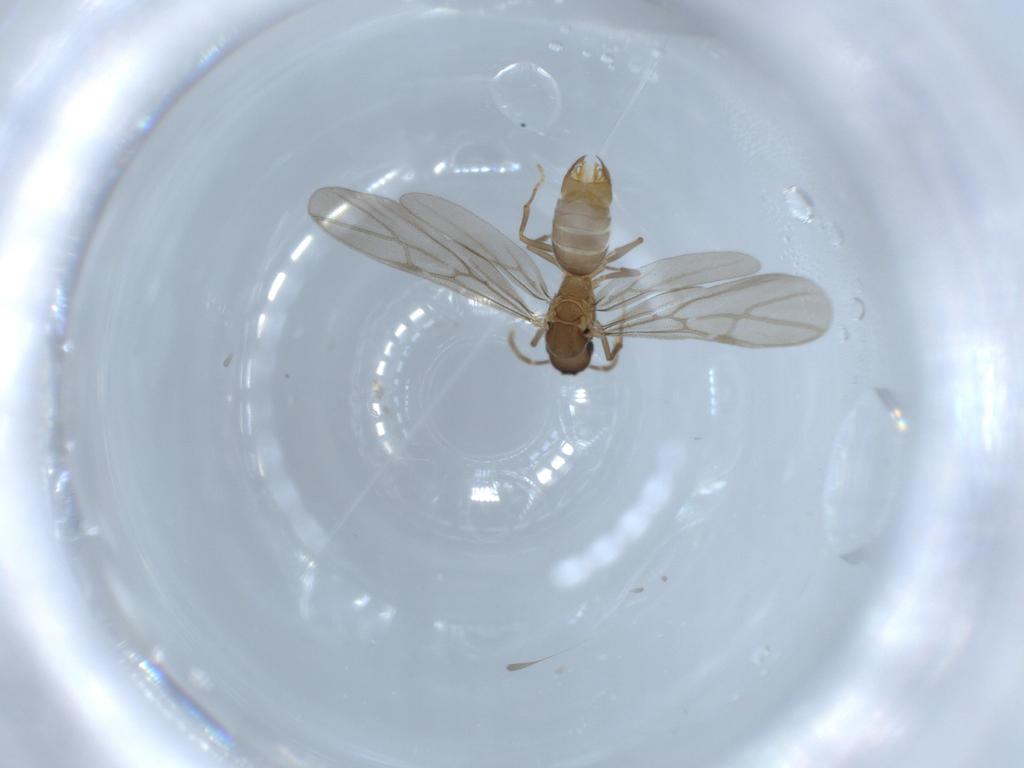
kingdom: Animalia
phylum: Arthropoda
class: Insecta
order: Hymenoptera
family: Formicidae
